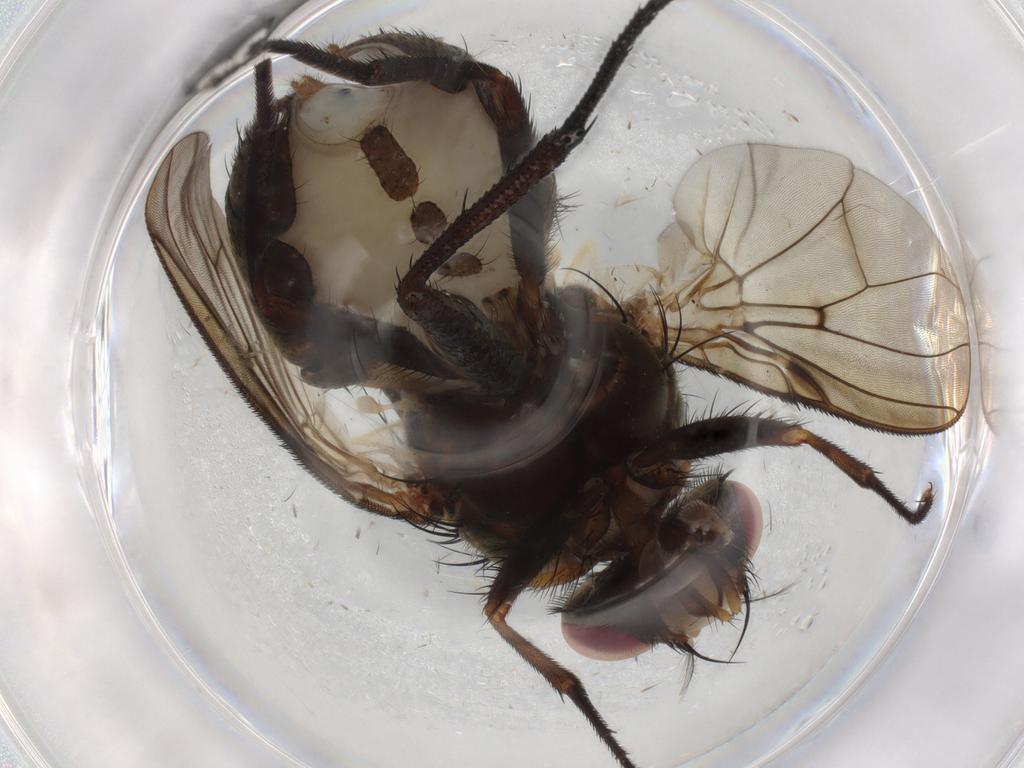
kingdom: Animalia
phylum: Arthropoda
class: Insecta
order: Diptera
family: Muscidae
